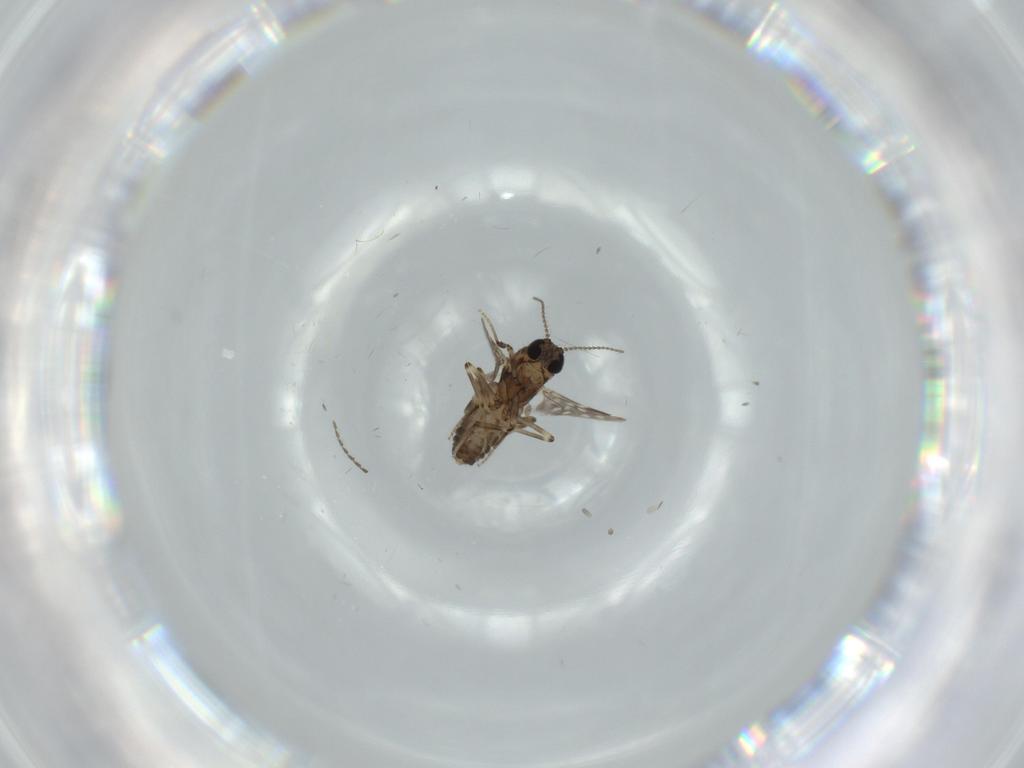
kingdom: Animalia
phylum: Arthropoda
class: Insecta
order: Diptera
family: Ceratopogonidae
